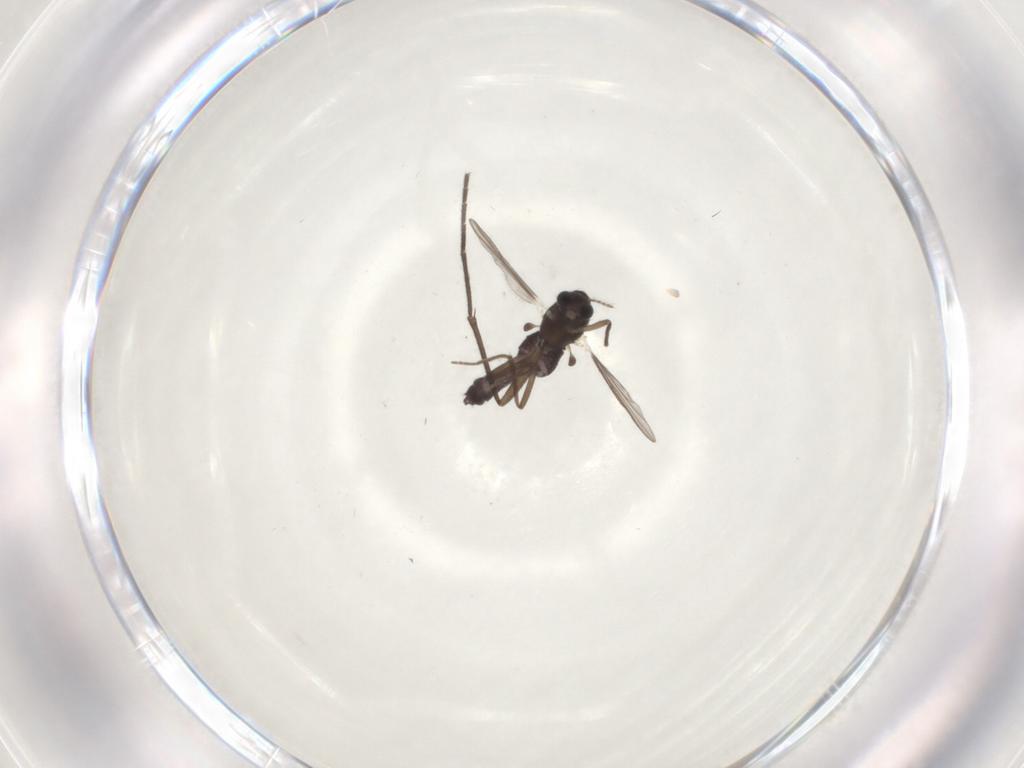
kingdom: Animalia
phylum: Arthropoda
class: Insecta
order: Diptera
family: Chironomidae
